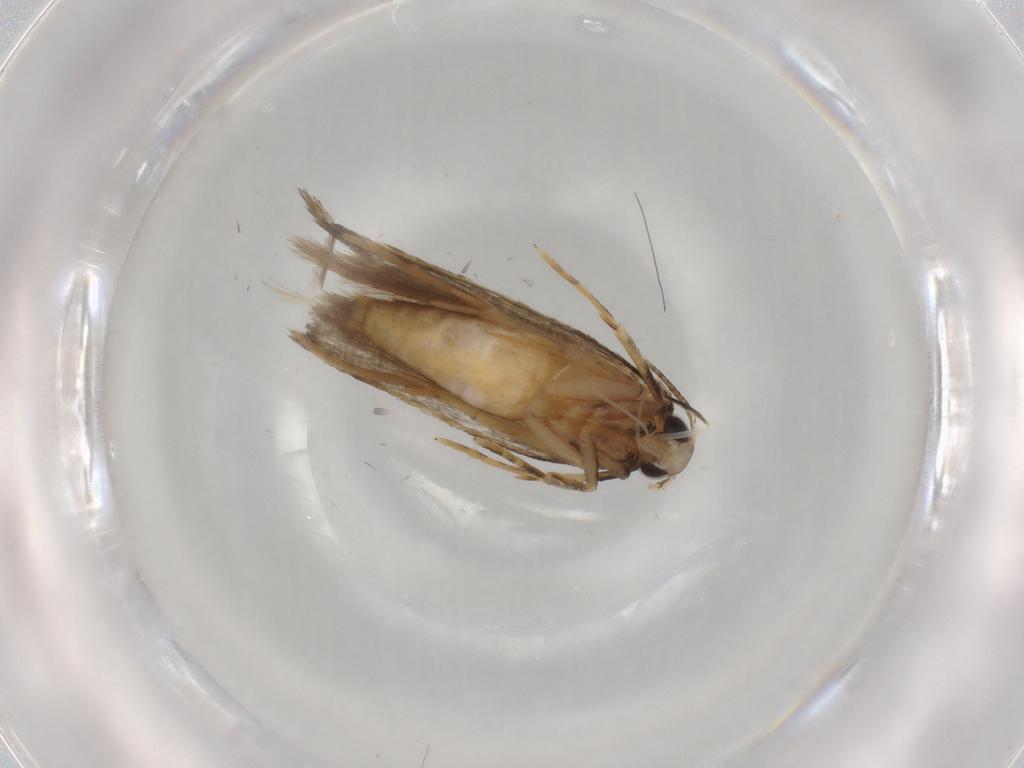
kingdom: Animalia
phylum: Arthropoda
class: Insecta
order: Lepidoptera
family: Autostichidae
